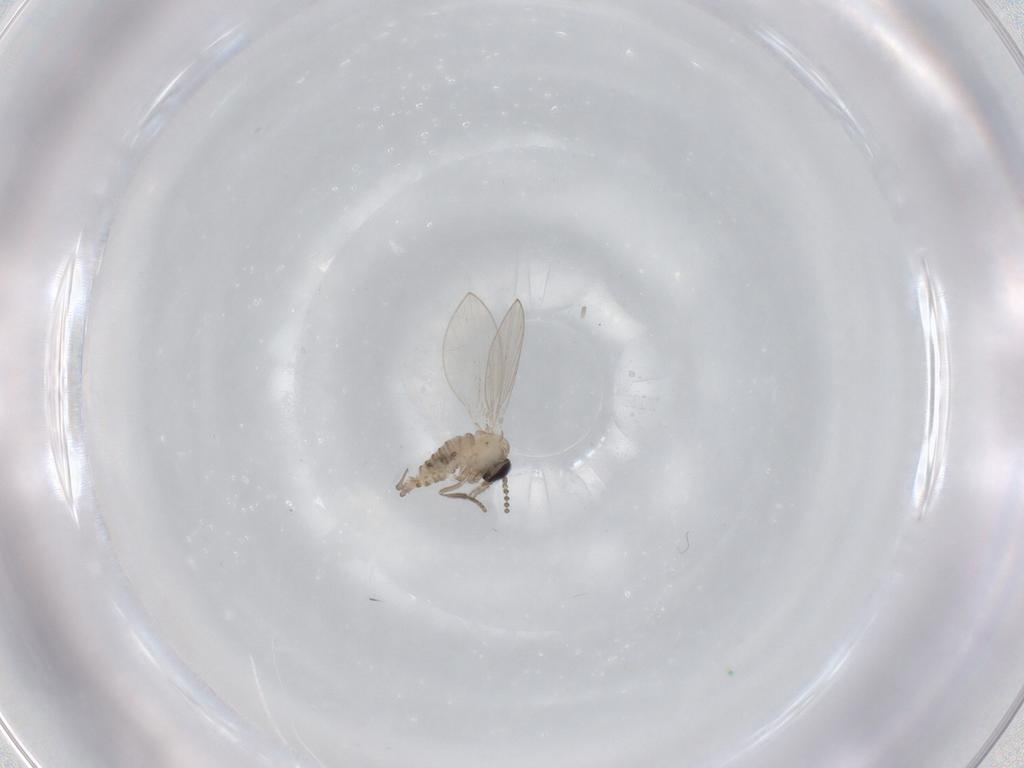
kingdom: Animalia
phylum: Arthropoda
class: Insecta
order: Diptera
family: Psychodidae
